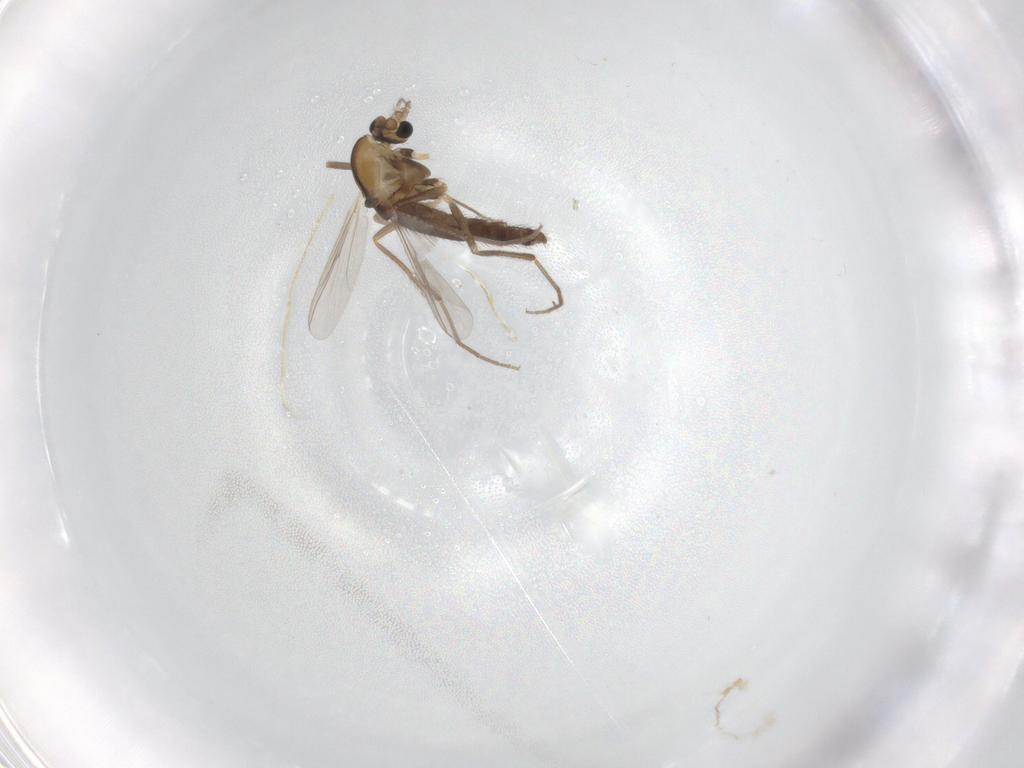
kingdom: Animalia
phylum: Arthropoda
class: Insecta
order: Diptera
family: Chironomidae
